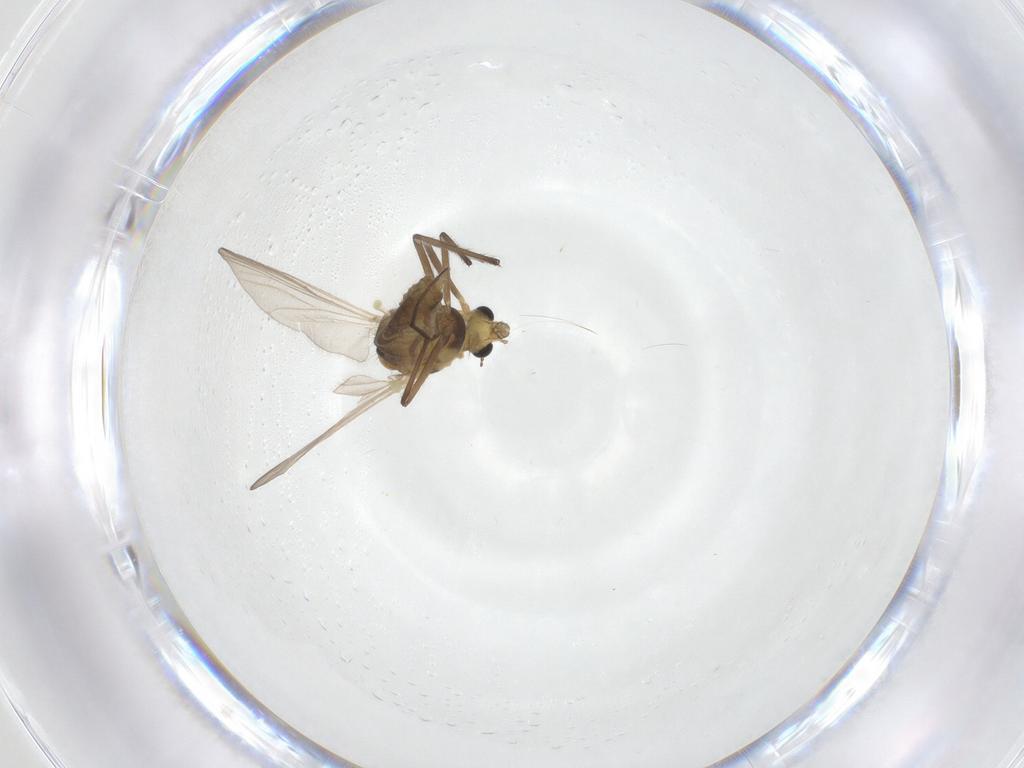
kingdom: Animalia
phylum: Arthropoda
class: Insecta
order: Diptera
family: Chironomidae
